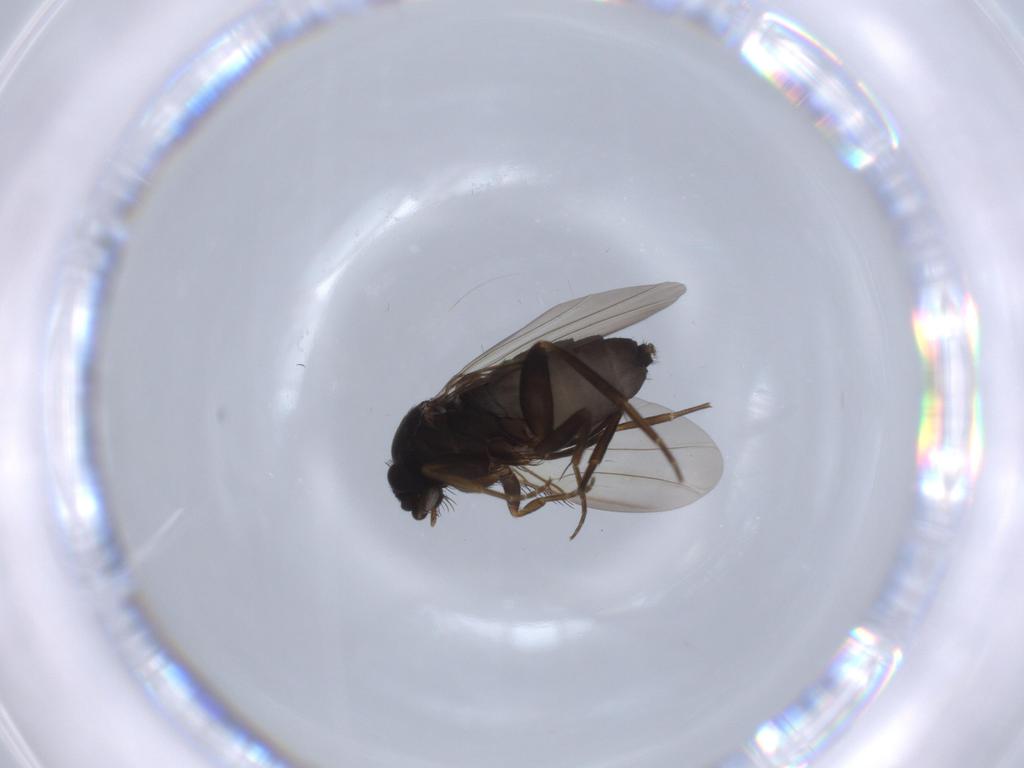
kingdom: Animalia
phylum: Arthropoda
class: Insecta
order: Diptera
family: Phoridae
